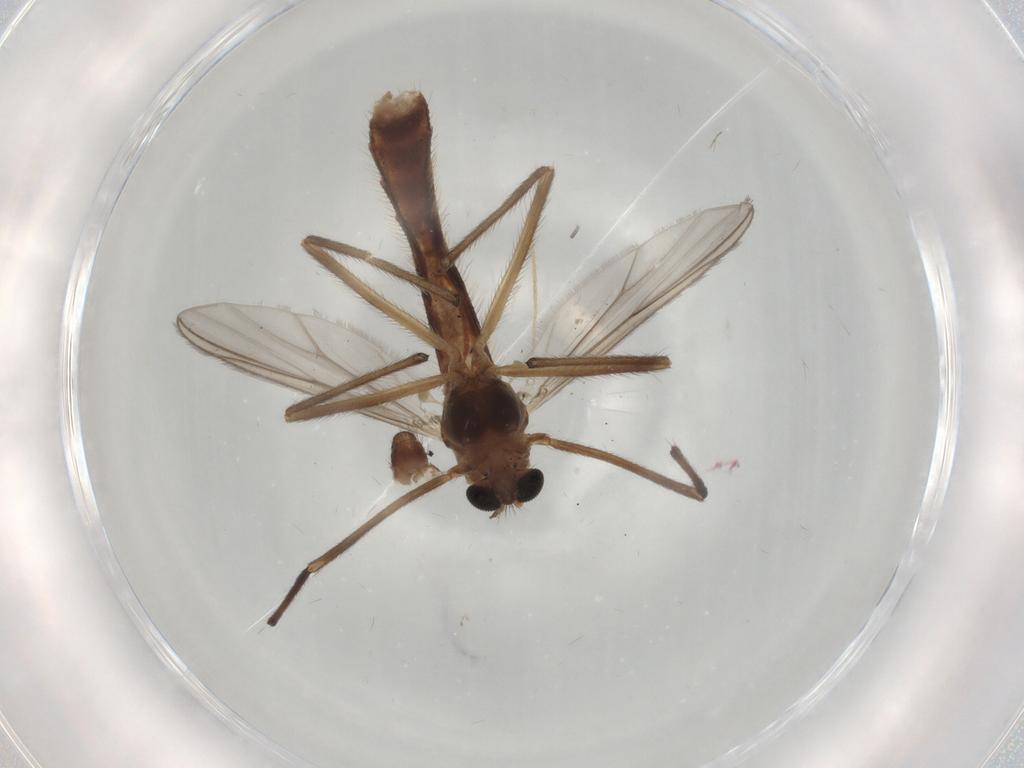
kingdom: Animalia
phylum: Arthropoda
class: Insecta
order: Diptera
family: Chironomidae
